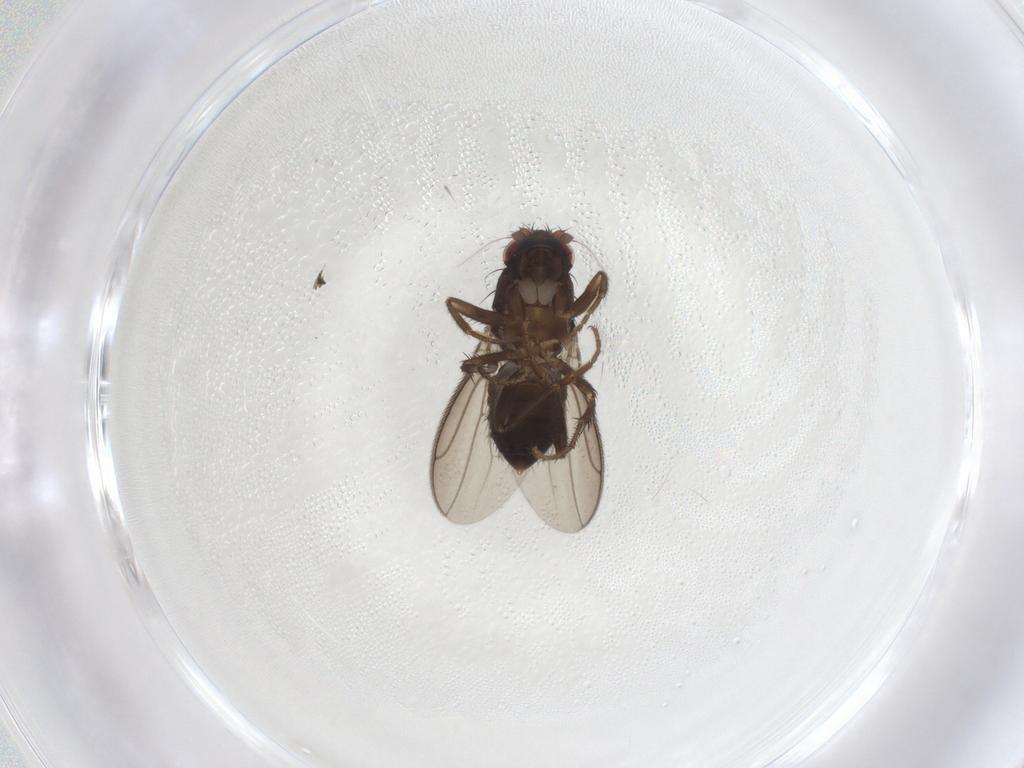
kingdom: Animalia
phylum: Arthropoda
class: Insecta
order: Diptera
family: Sphaeroceridae
